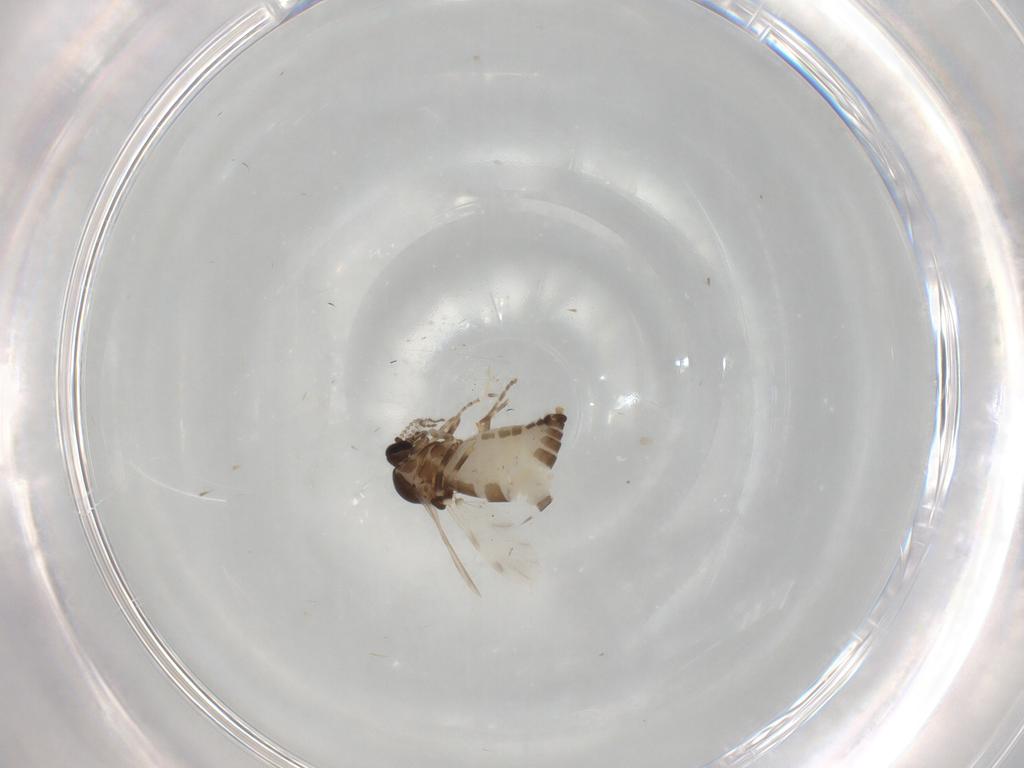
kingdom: Animalia
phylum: Arthropoda
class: Insecta
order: Diptera
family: Ceratopogonidae
